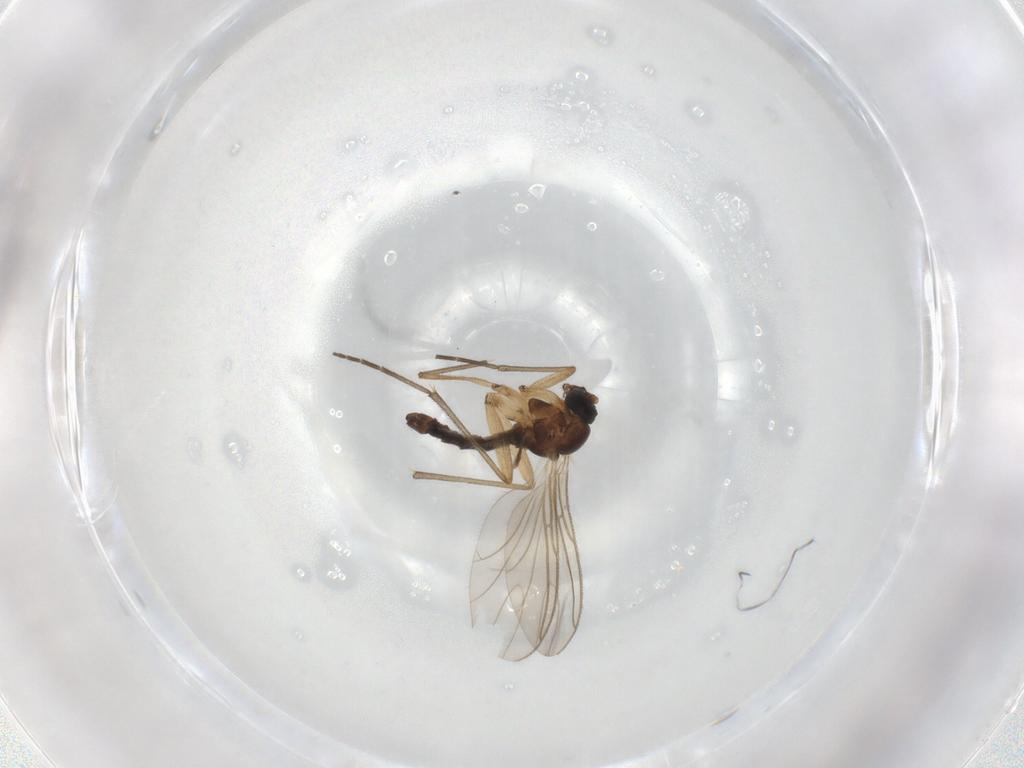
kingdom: Animalia
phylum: Arthropoda
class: Insecta
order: Diptera
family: Sciaridae
